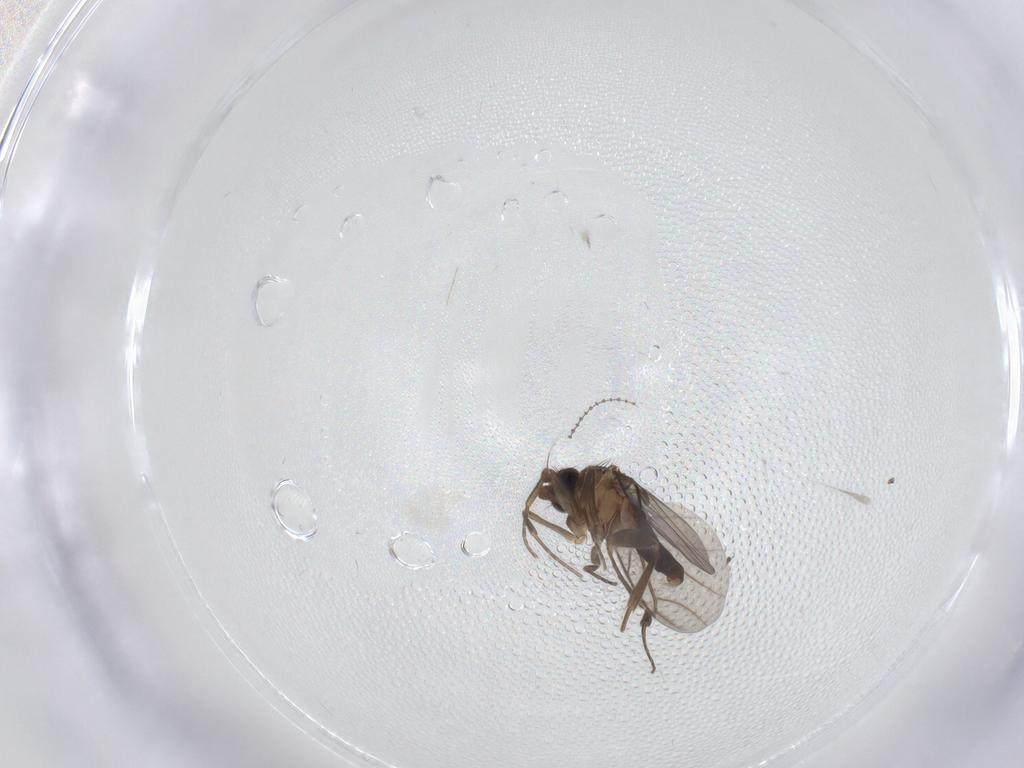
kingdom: Animalia
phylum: Arthropoda
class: Insecta
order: Diptera
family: Phoridae
